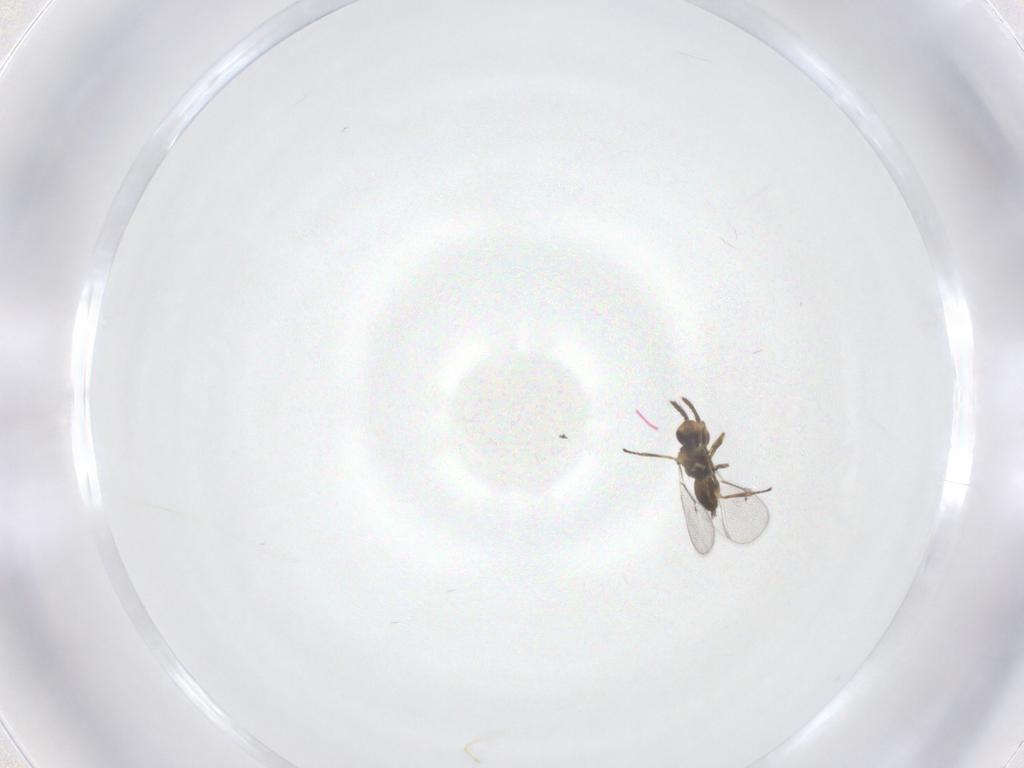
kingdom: Animalia
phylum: Arthropoda
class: Insecta
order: Hymenoptera
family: Eulophidae
